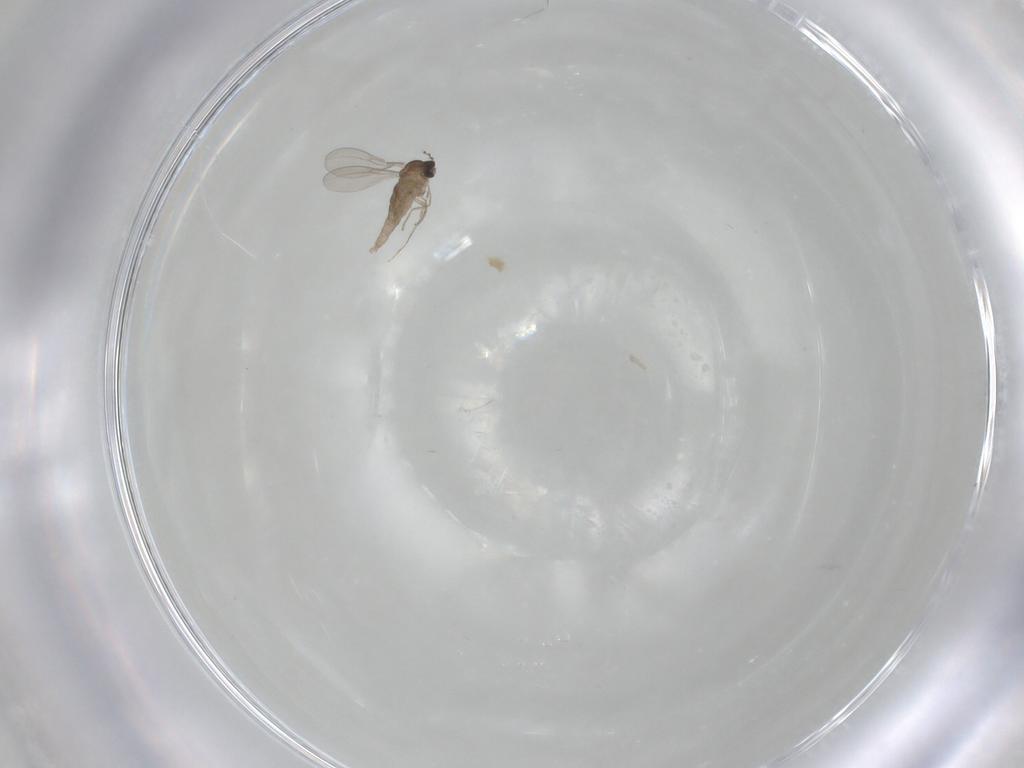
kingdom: Animalia
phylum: Arthropoda
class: Insecta
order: Diptera
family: Cecidomyiidae
